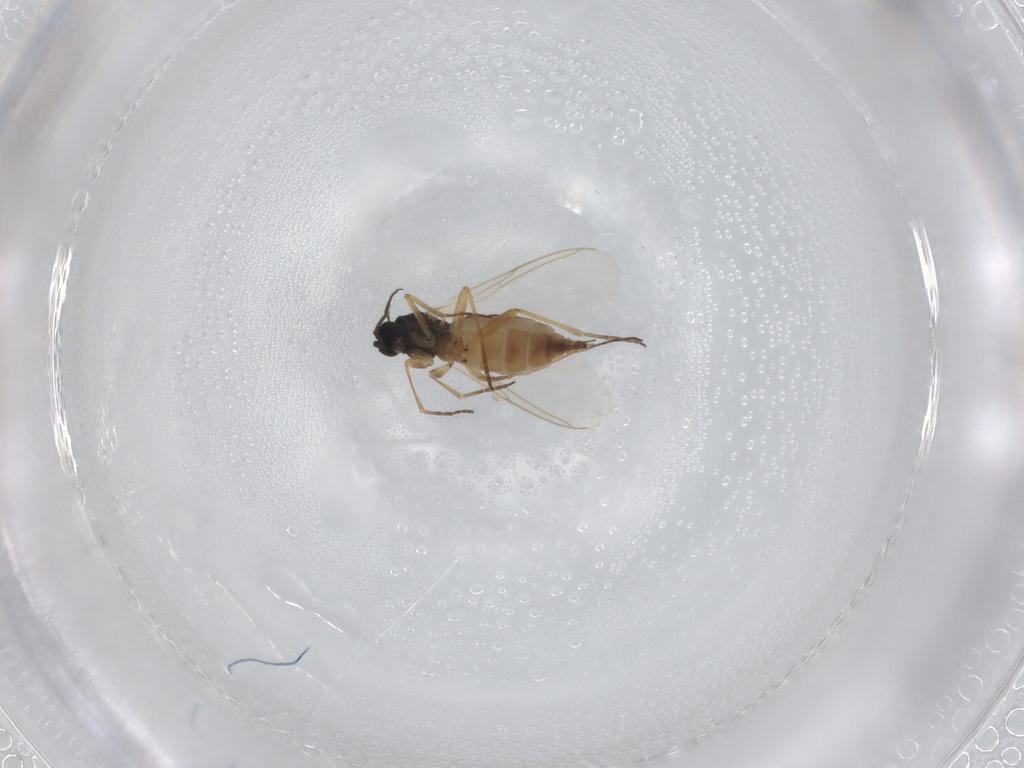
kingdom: Animalia
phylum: Arthropoda
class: Insecta
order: Diptera
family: Sciaridae
